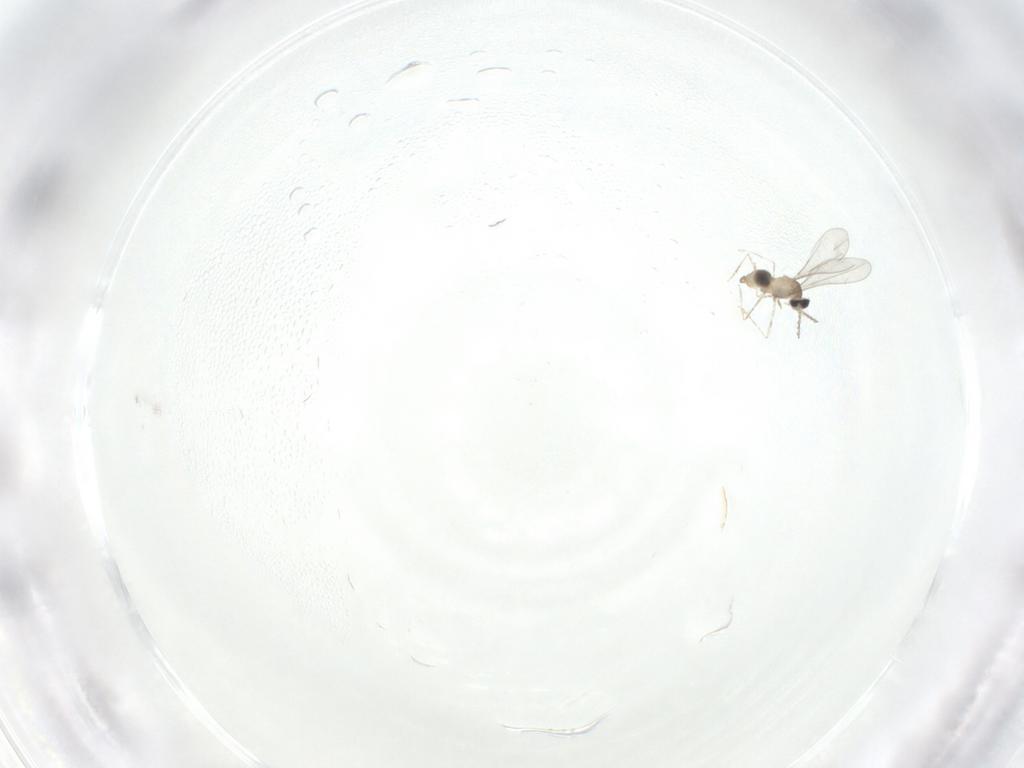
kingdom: Animalia
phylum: Arthropoda
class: Insecta
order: Diptera
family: Cecidomyiidae
